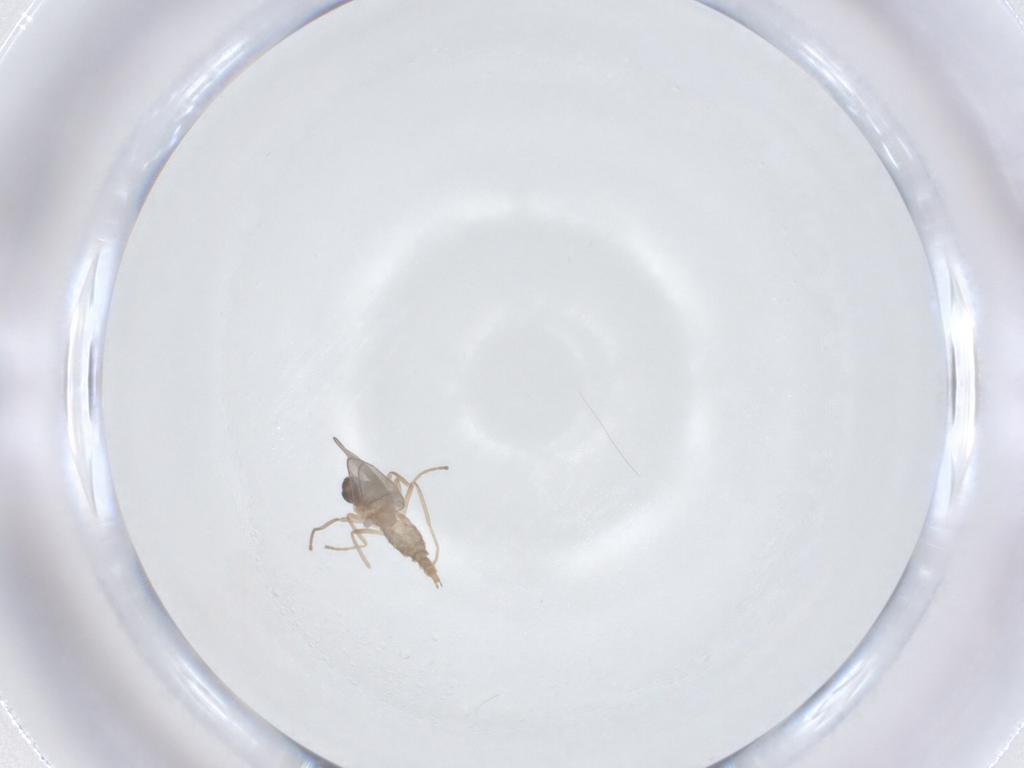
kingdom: Animalia
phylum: Arthropoda
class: Insecta
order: Diptera
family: Cecidomyiidae
